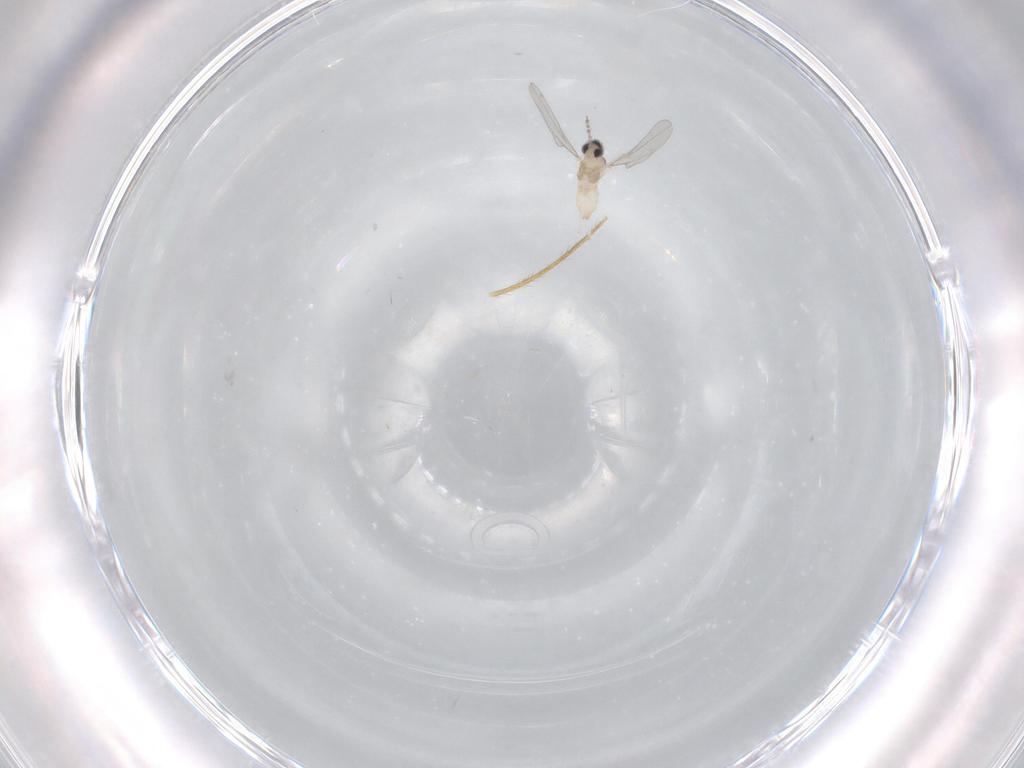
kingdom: Animalia
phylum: Arthropoda
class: Insecta
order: Diptera
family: Cecidomyiidae
